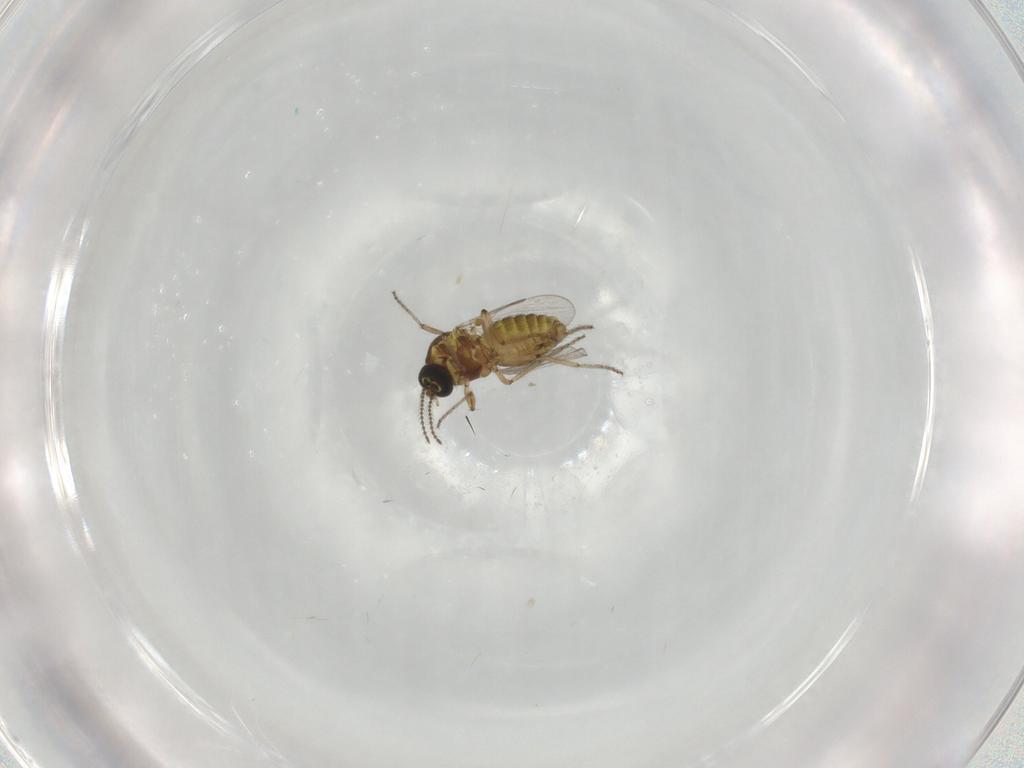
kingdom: Animalia
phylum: Arthropoda
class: Insecta
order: Diptera
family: Ceratopogonidae
